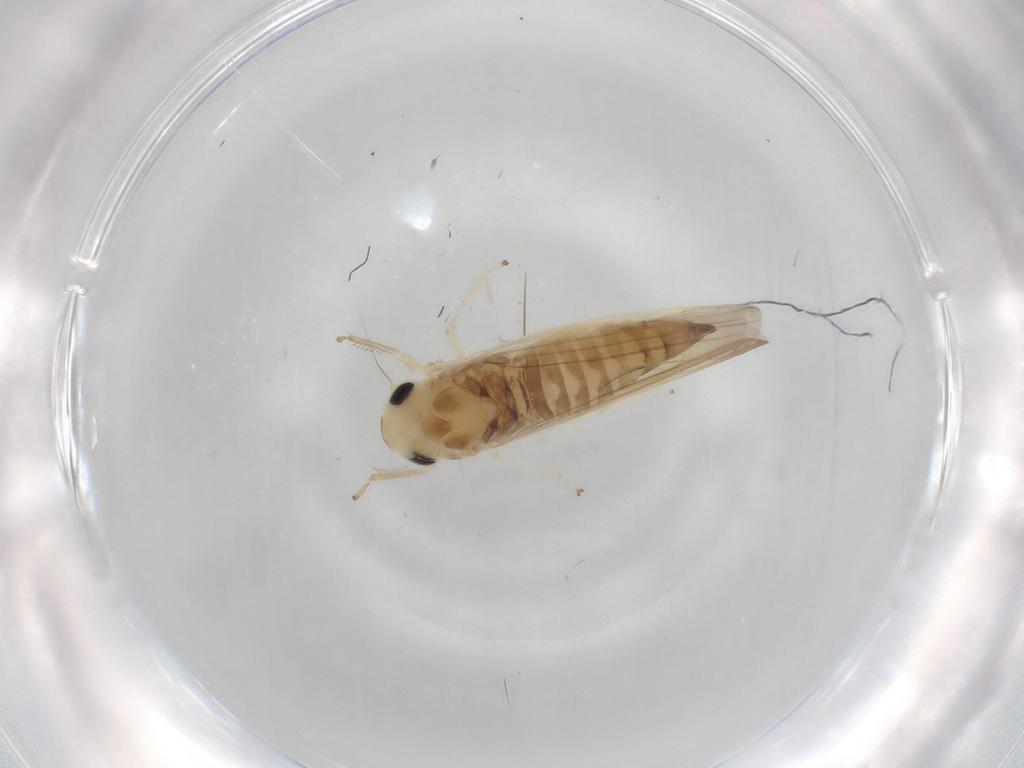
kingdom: Animalia
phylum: Arthropoda
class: Insecta
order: Hemiptera
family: Cicadellidae
